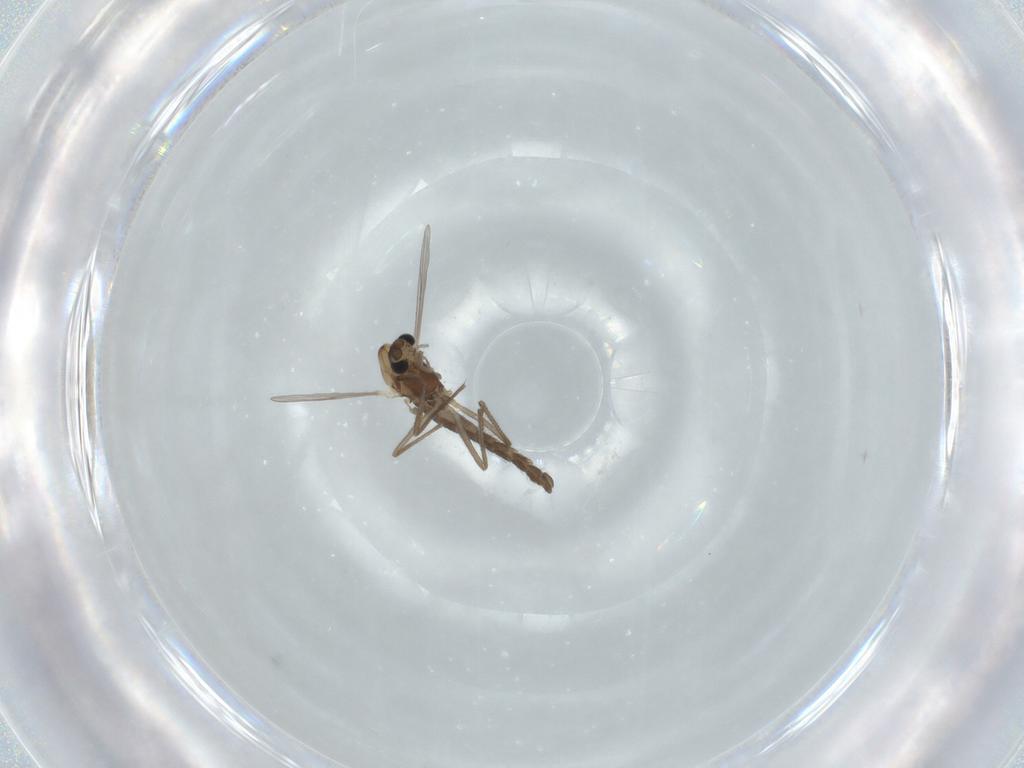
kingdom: Animalia
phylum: Arthropoda
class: Insecta
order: Diptera
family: Chironomidae
